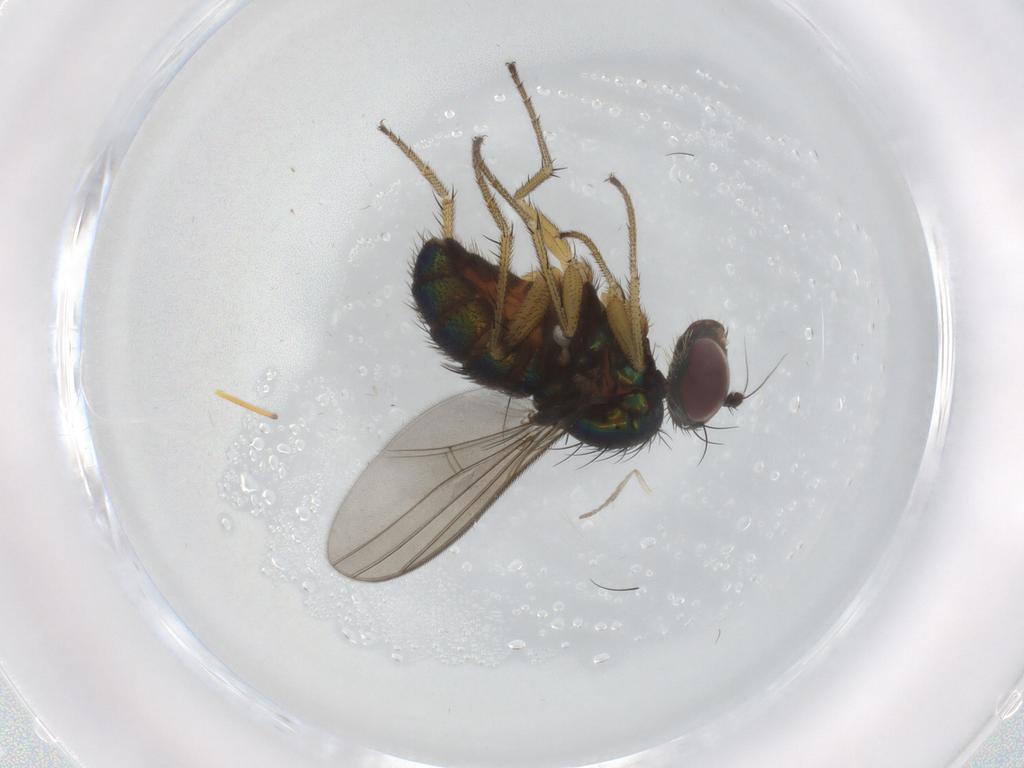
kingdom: Animalia
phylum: Arthropoda
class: Insecta
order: Diptera
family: Dolichopodidae
